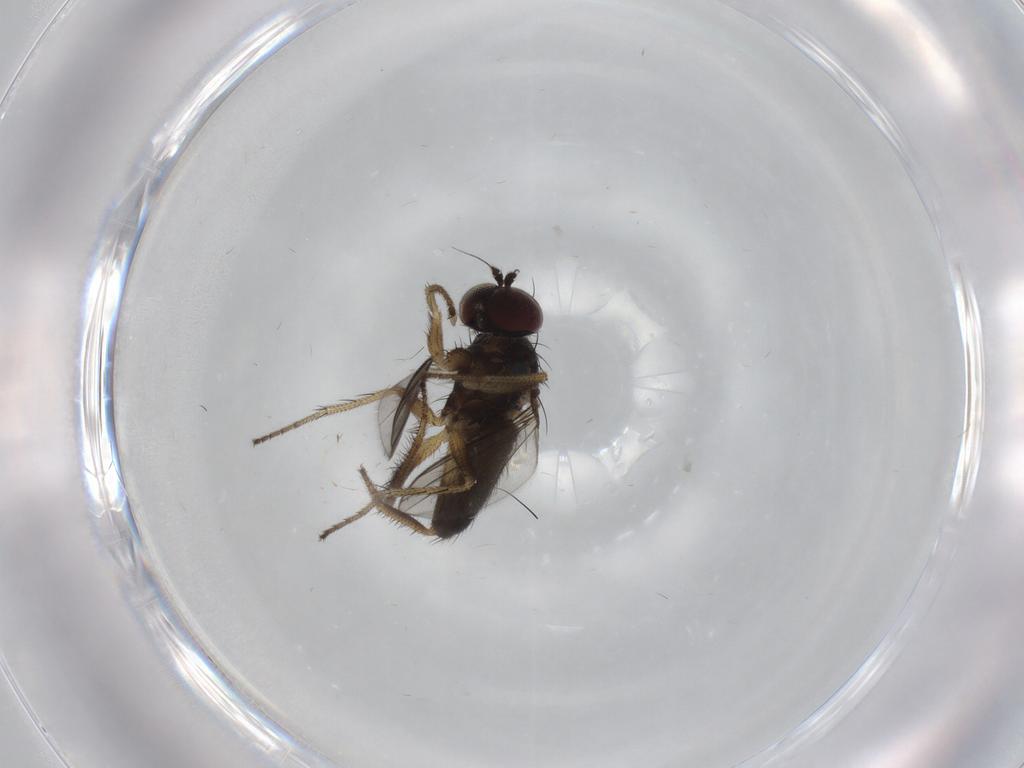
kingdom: Animalia
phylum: Arthropoda
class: Insecta
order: Diptera
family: Dolichopodidae
